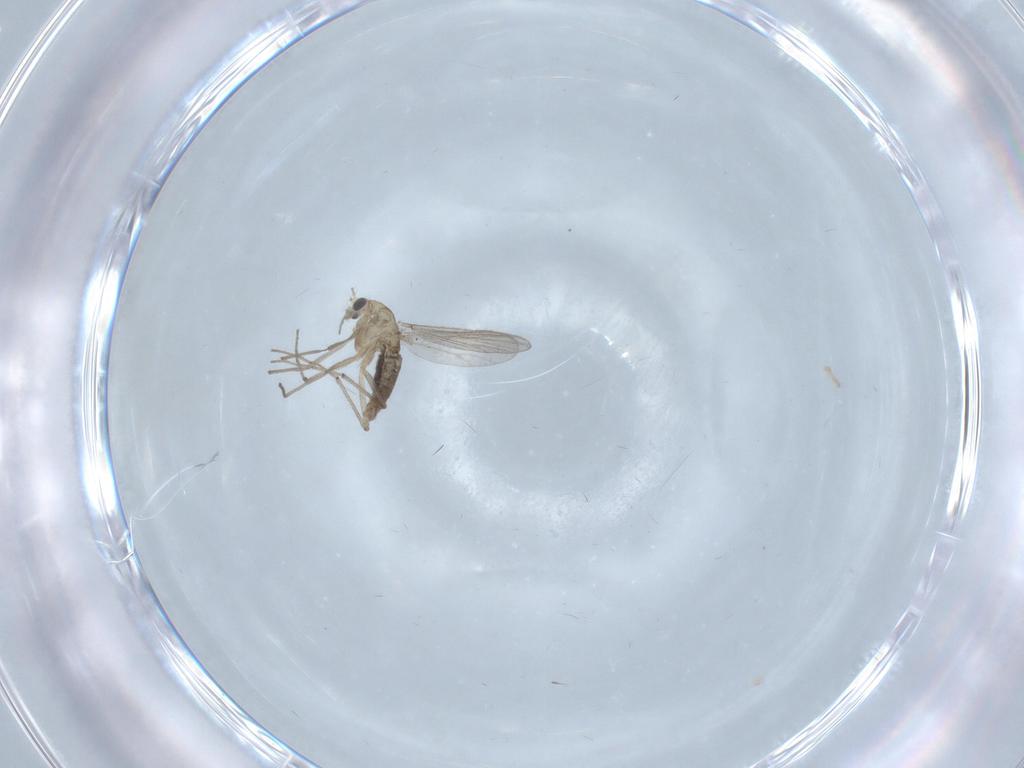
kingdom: Animalia
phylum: Arthropoda
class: Insecta
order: Diptera
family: Chironomidae
